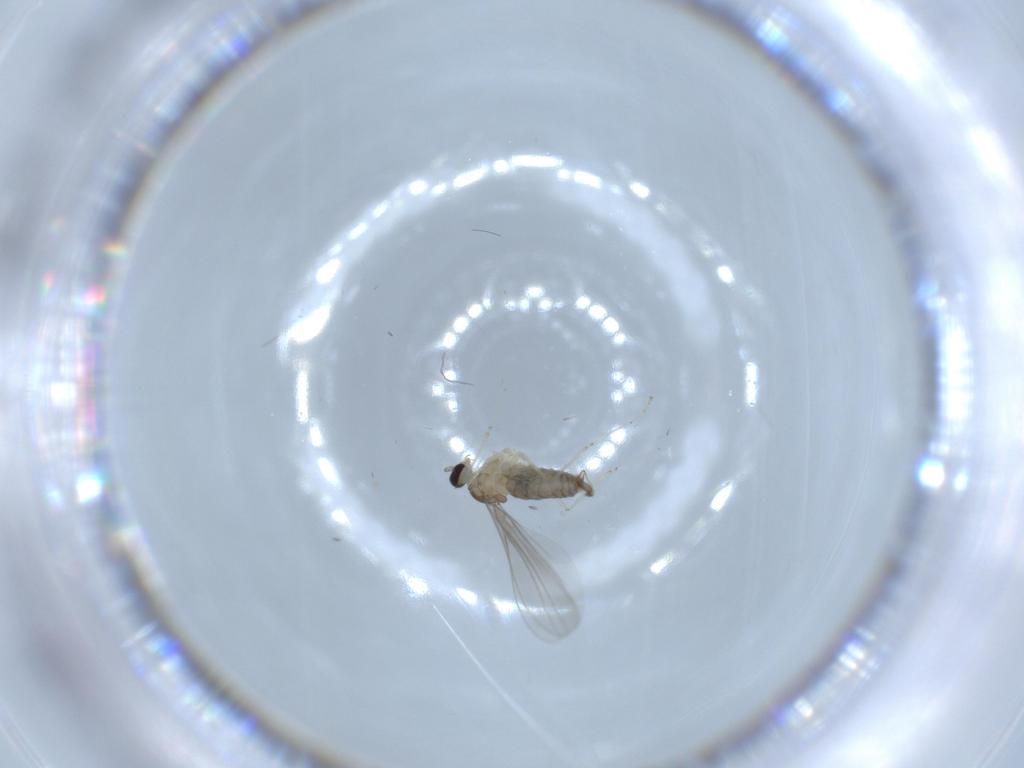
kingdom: Animalia
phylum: Arthropoda
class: Insecta
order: Diptera
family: Cecidomyiidae
